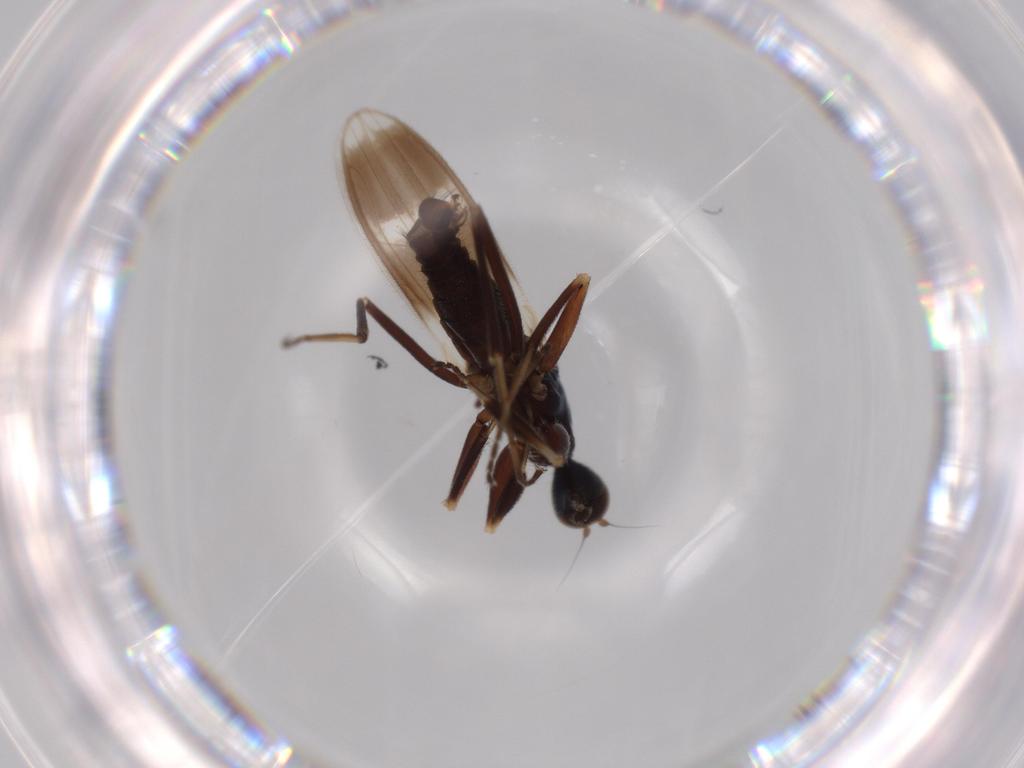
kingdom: Animalia
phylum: Arthropoda
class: Insecta
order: Diptera
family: Hybotidae
